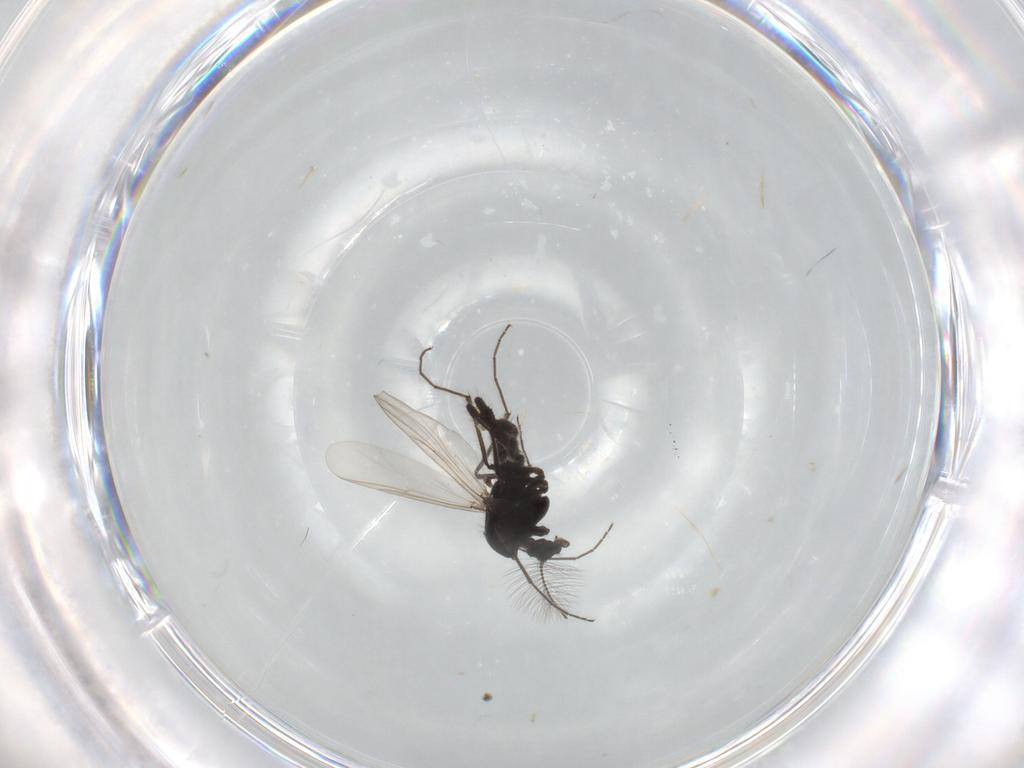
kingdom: Animalia
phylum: Arthropoda
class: Insecta
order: Diptera
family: Chironomidae
